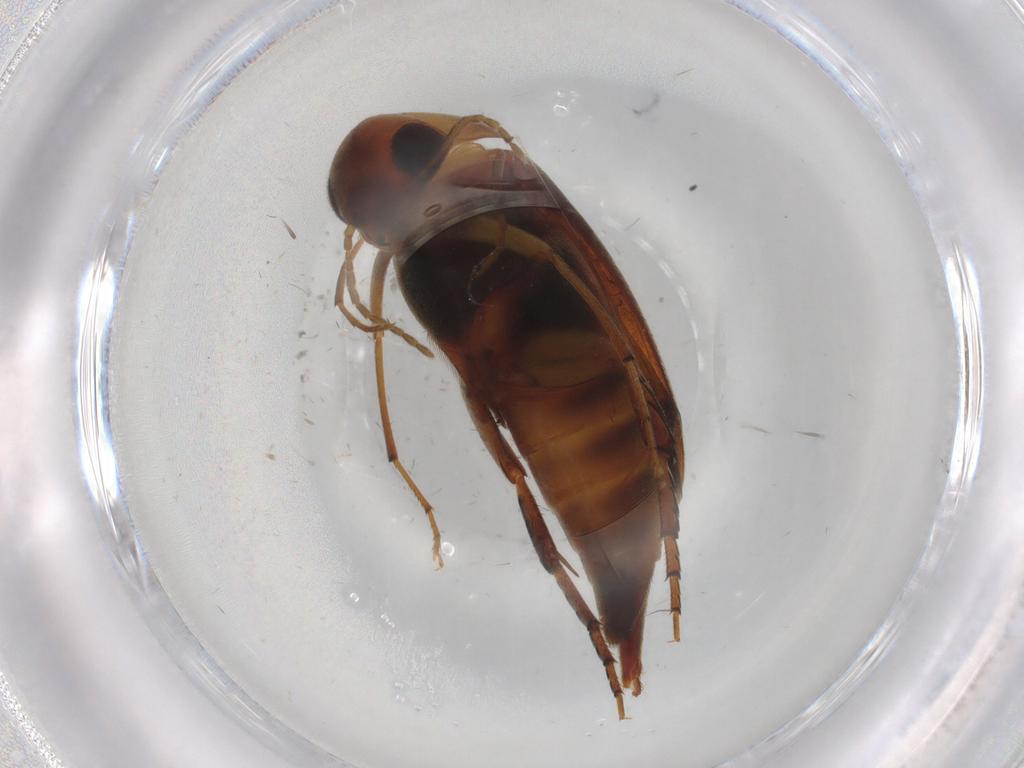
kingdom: Animalia
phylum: Arthropoda
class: Insecta
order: Coleoptera
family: Mordellidae
